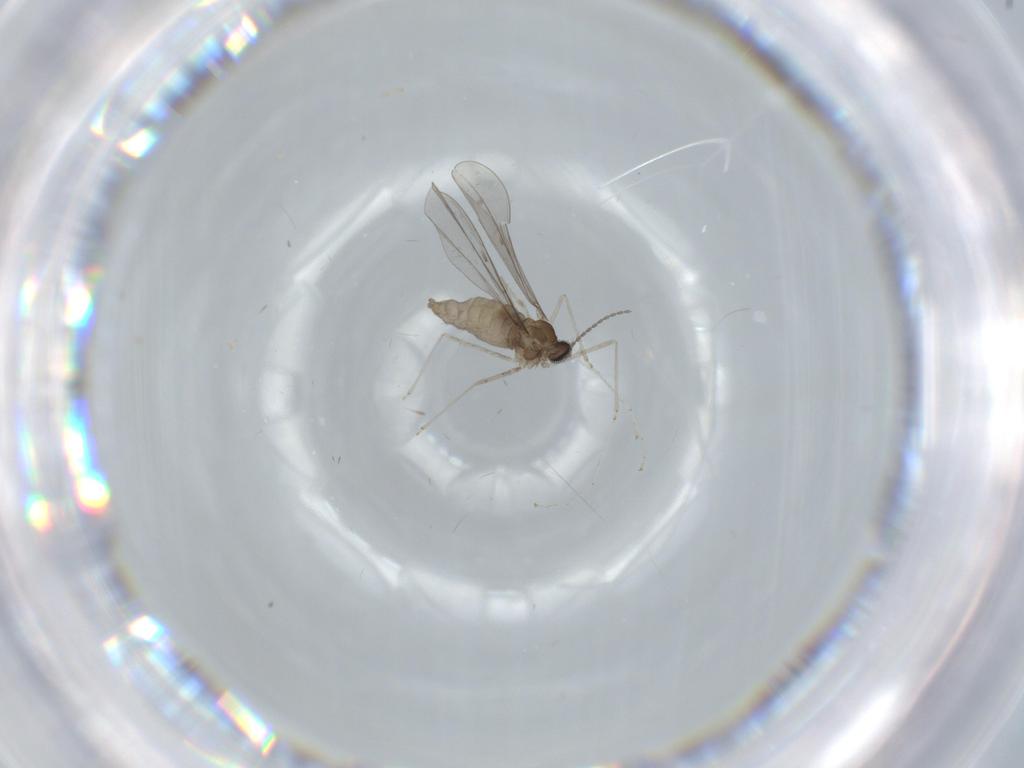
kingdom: Animalia
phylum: Arthropoda
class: Insecta
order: Diptera
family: Cecidomyiidae
